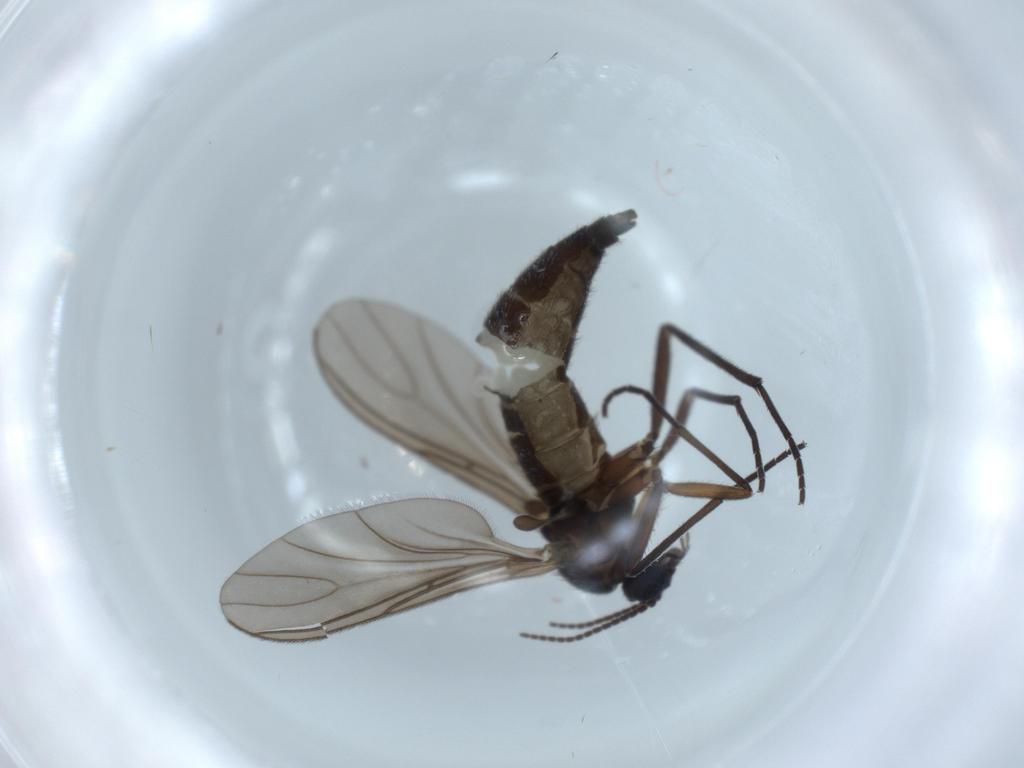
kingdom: Animalia
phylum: Arthropoda
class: Insecta
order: Diptera
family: Sciaridae
